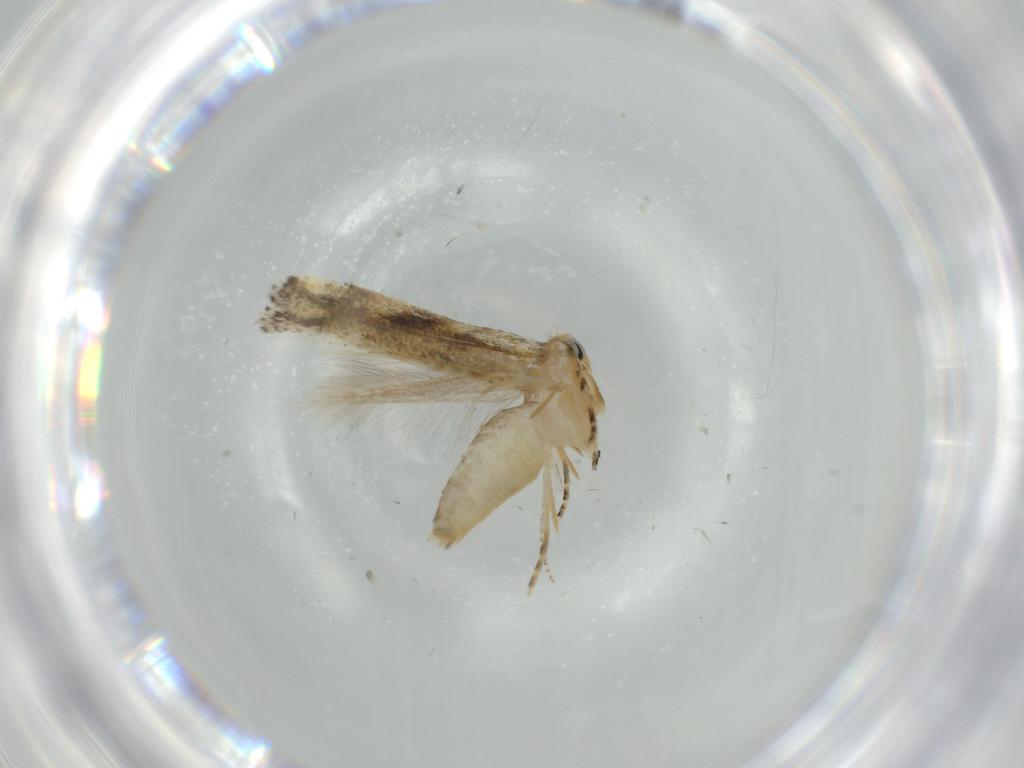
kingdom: Animalia
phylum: Arthropoda
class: Insecta
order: Lepidoptera
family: Bucculatricidae
